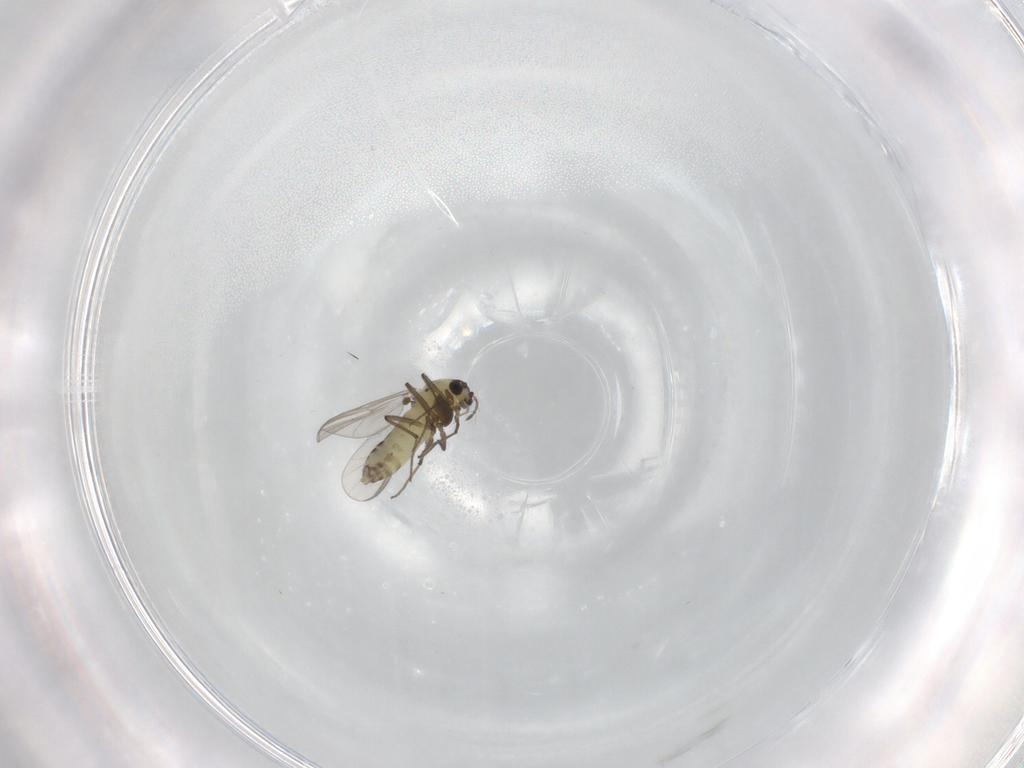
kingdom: Animalia
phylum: Arthropoda
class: Insecta
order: Diptera
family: Chironomidae
